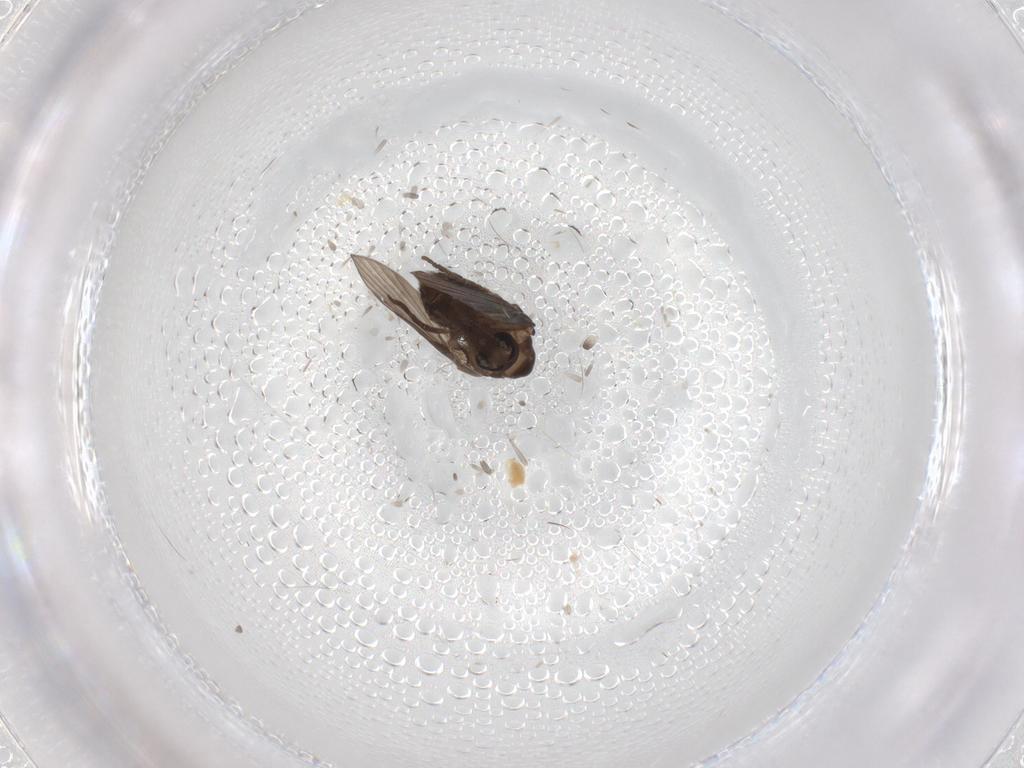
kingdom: Animalia
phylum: Arthropoda
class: Insecta
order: Diptera
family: Psychodidae
